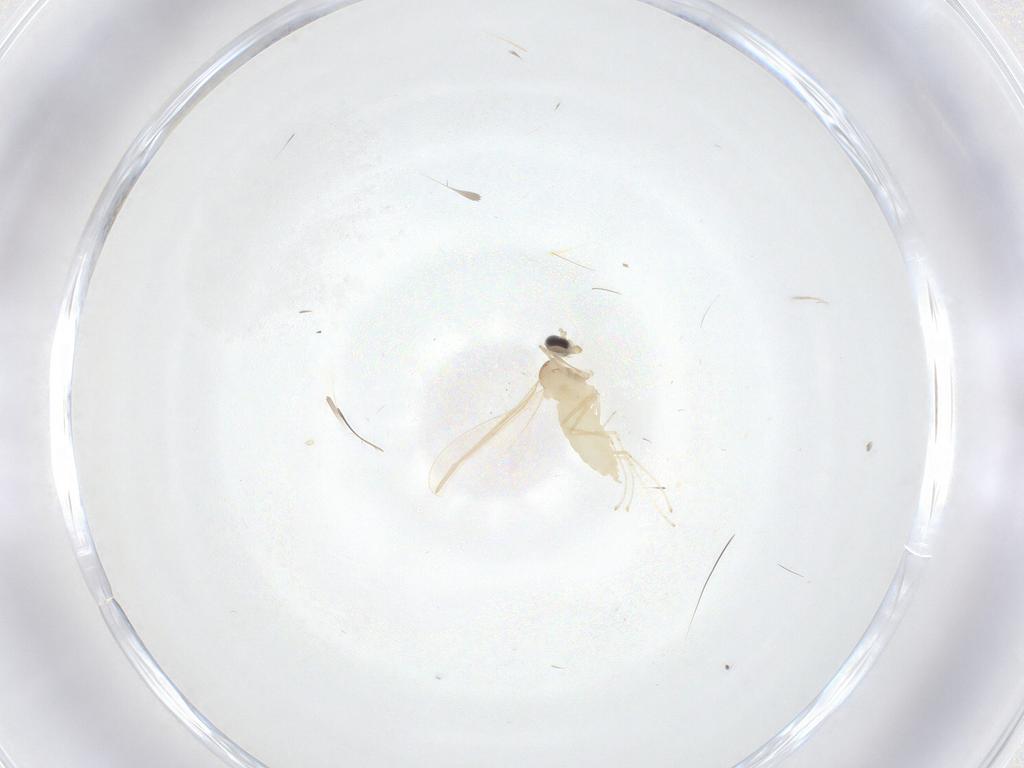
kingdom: Animalia
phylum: Arthropoda
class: Insecta
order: Diptera
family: Cecidomyiidae
